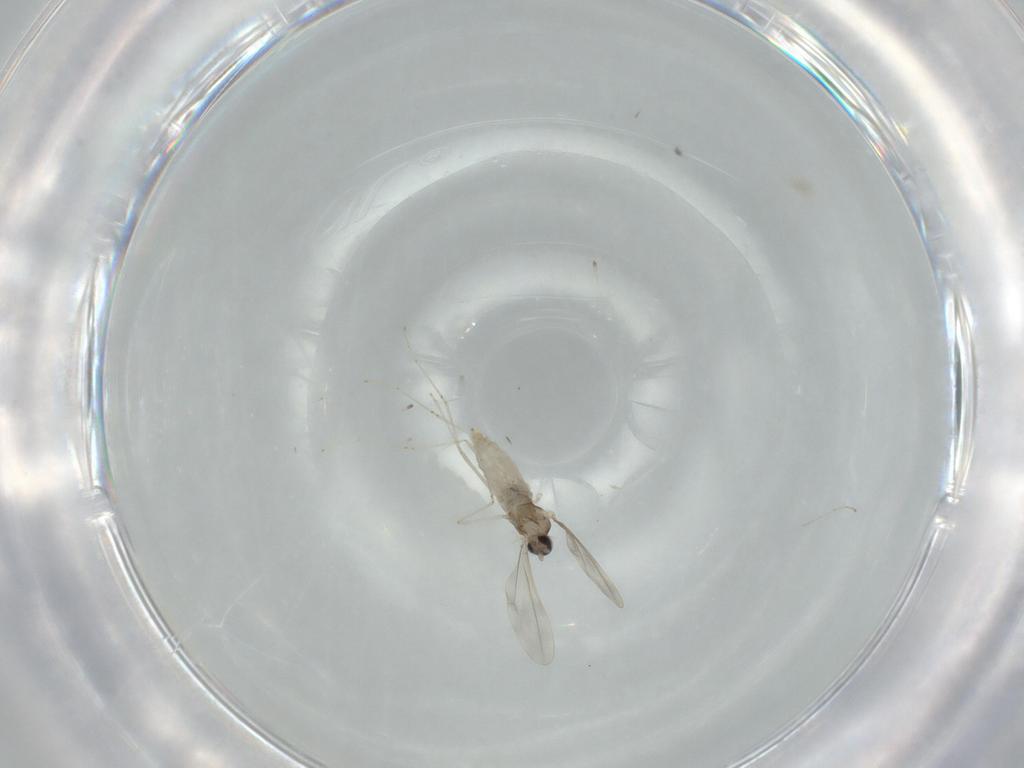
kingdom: Animalia
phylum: Arthropoda
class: Insecta
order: Diptera
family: Cecidomyiidae
